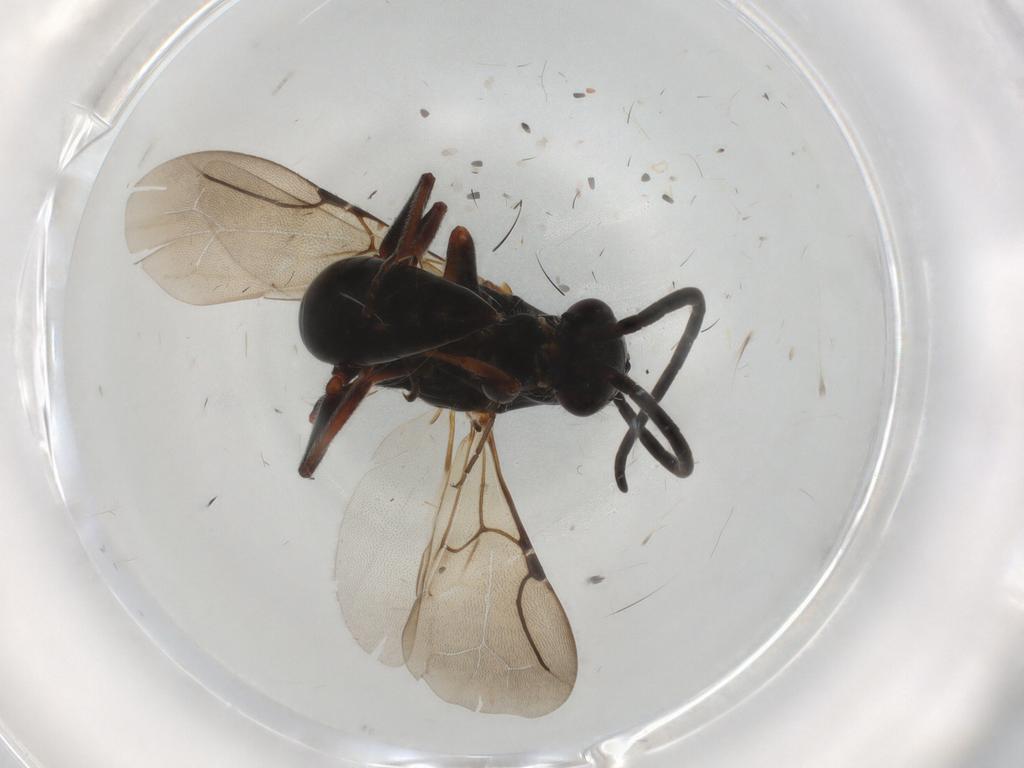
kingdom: Animalia
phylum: Arthropoda
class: Insecta
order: Hymenoptera
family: Bethylidae
